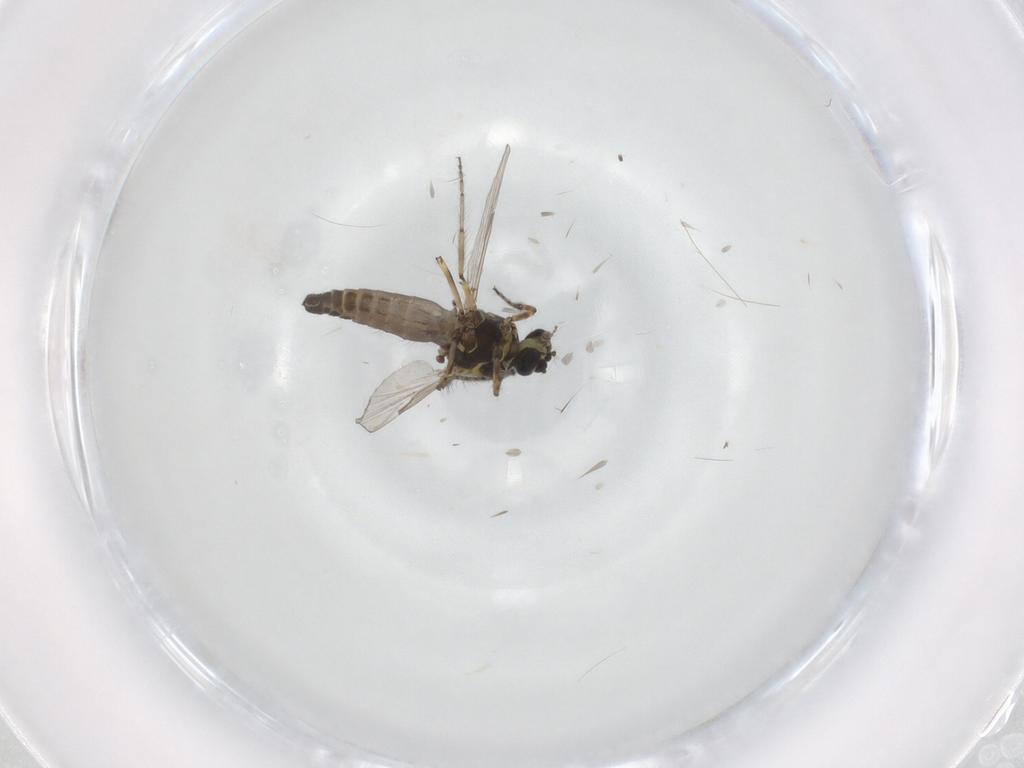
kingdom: Animalia
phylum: Arthropoda
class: Insecta
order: Diptera
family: Ceratopogonidae
